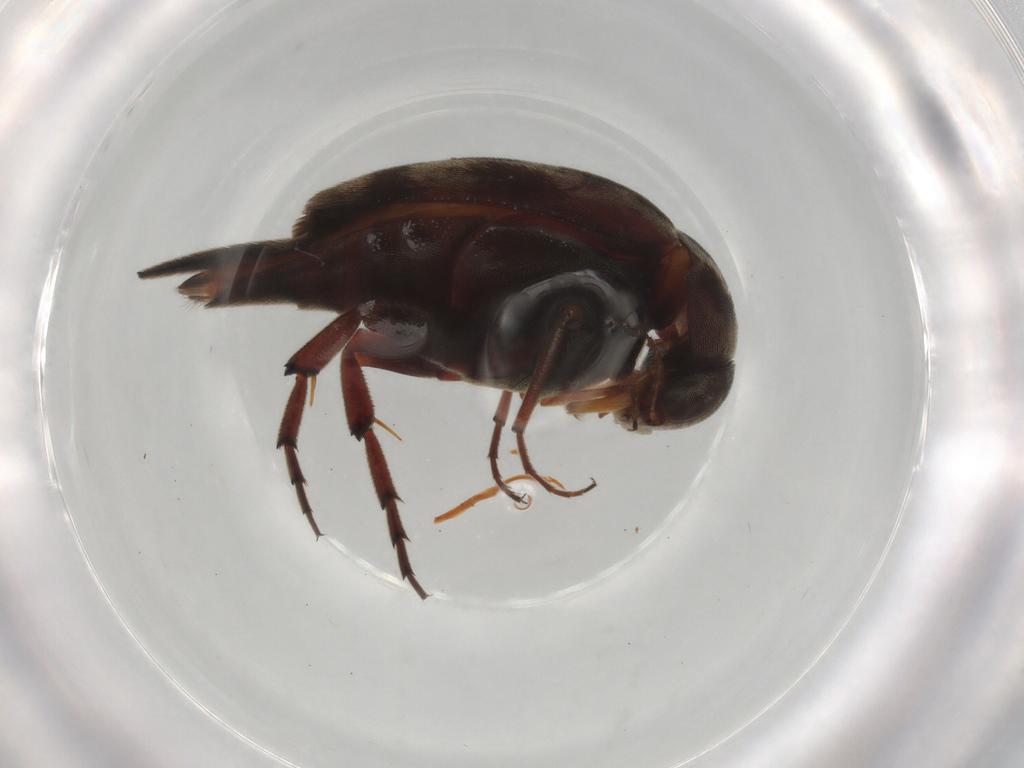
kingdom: Animalia
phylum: Arthropoda
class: Insecta
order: Coleoptera
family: Mordellidae
